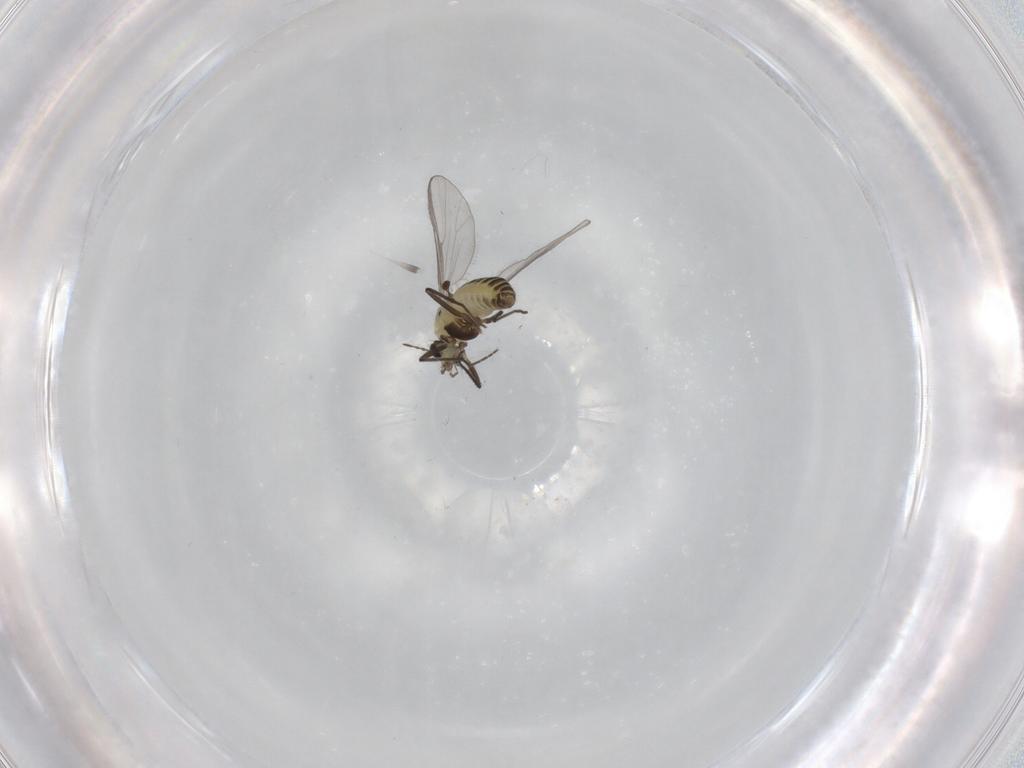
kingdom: Animalia
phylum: Arthropoda
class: Insecta
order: Diptera
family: Chironomidae
